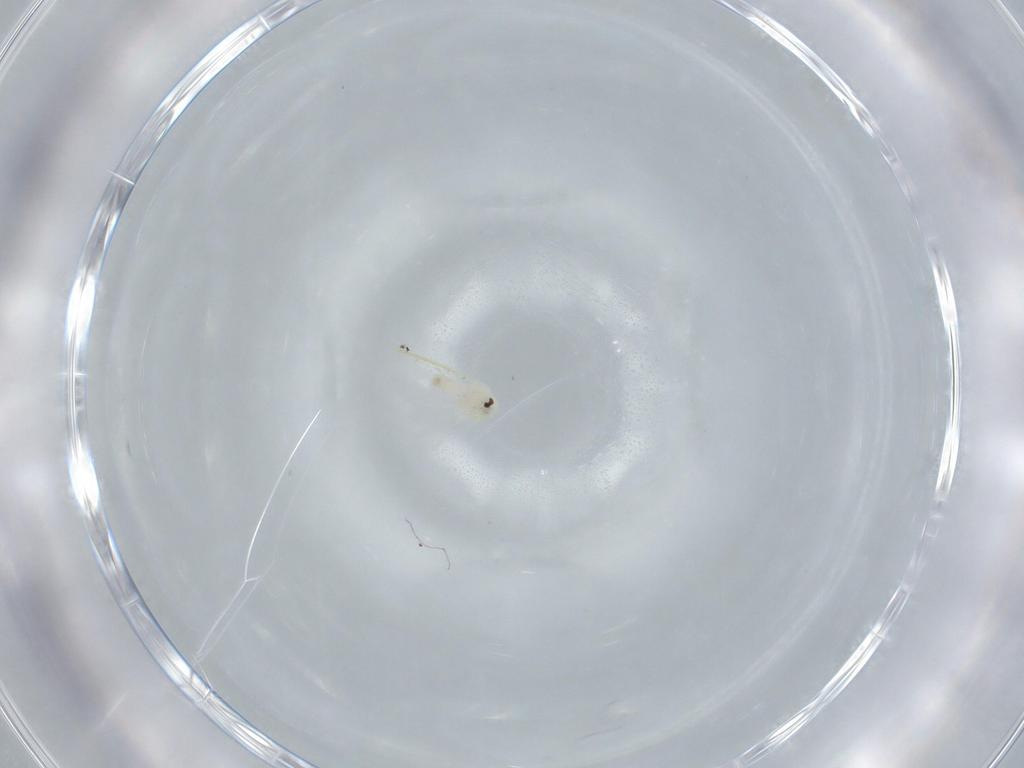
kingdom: Animalia
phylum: Arthropoda
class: Insecta
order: Hemiptera
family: Aleyrodidae
